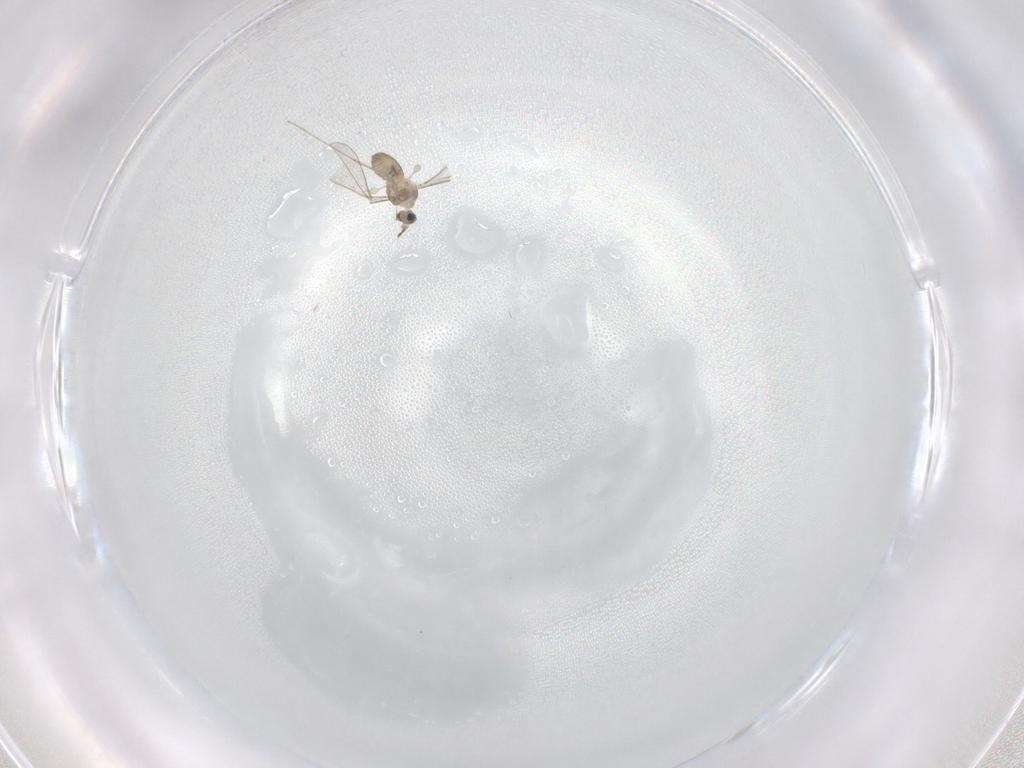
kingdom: Animalia
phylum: Arthropoda
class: Insecta
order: Diptera
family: Cecidomyiidae
